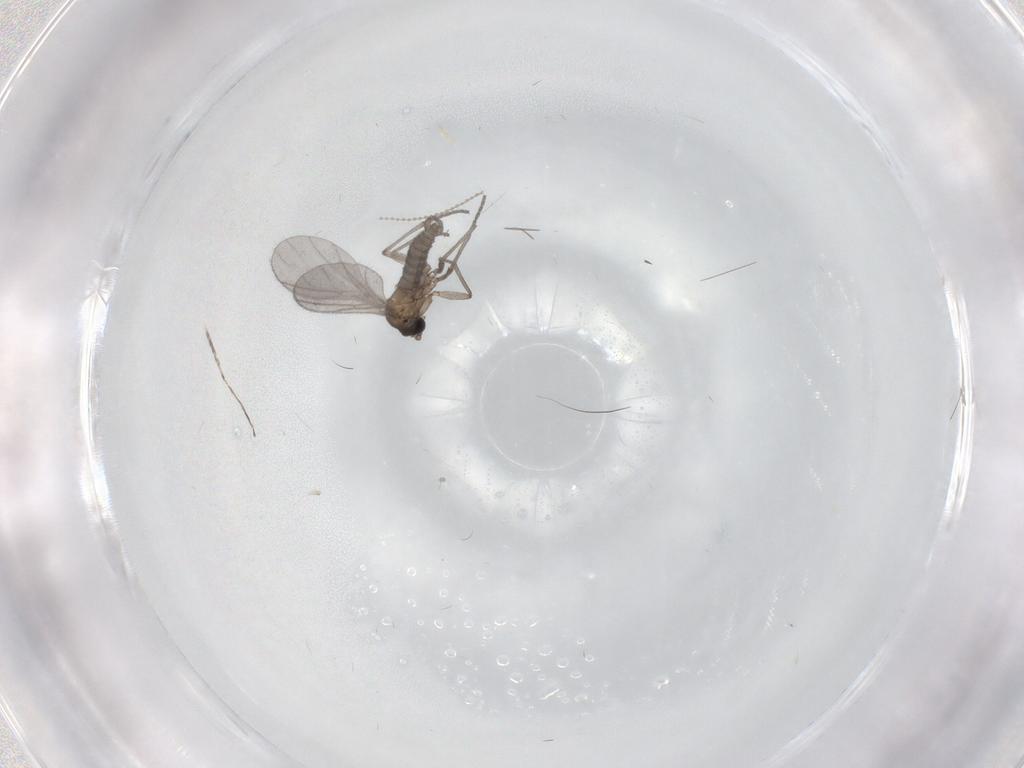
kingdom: Animalia
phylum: Arthropoda
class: Insecta
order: Diptera
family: Sciaridae
